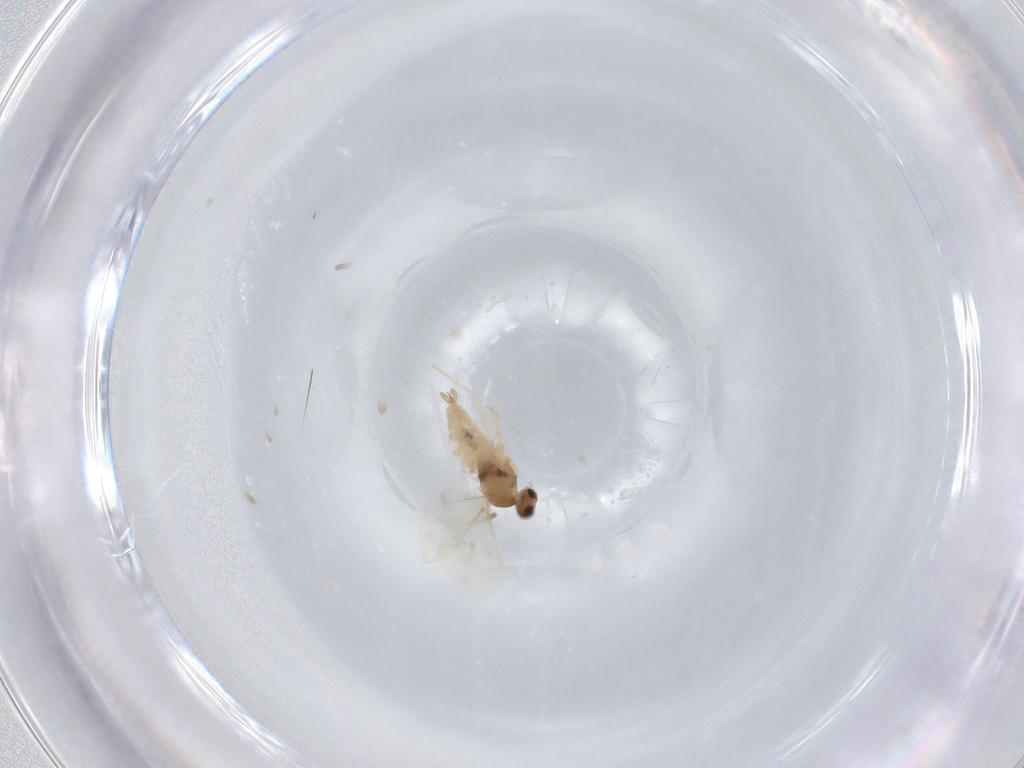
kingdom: Animalia
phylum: Arthropoda
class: Insecta
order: Diptera
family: Cecidomyiidae
